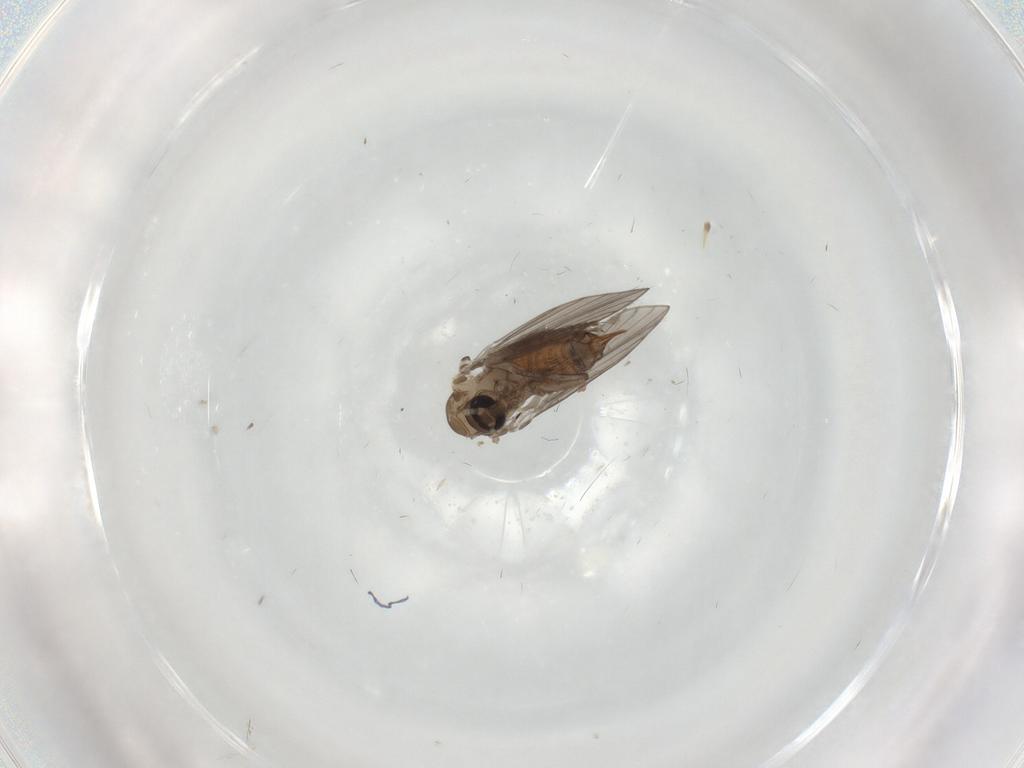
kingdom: Animalia
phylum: Arthropoda
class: Insecta
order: Diptera
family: Psychodidae
